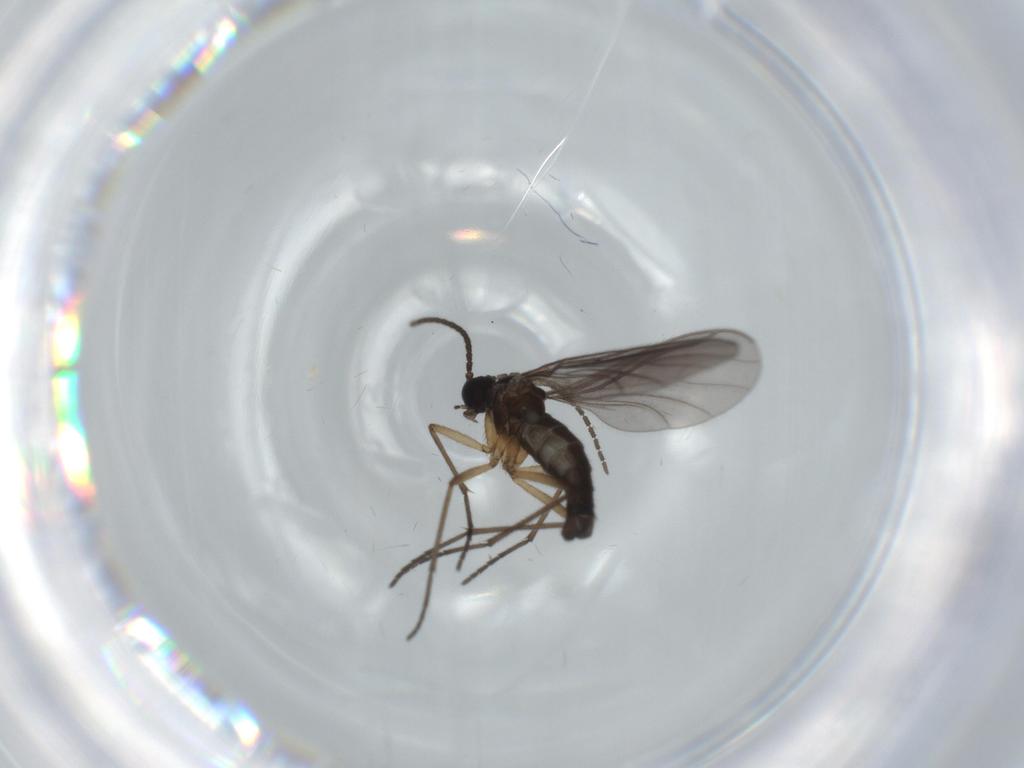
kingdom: Animalia
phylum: Arthropoda
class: Insecta
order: Diptera
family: Sciaridae
